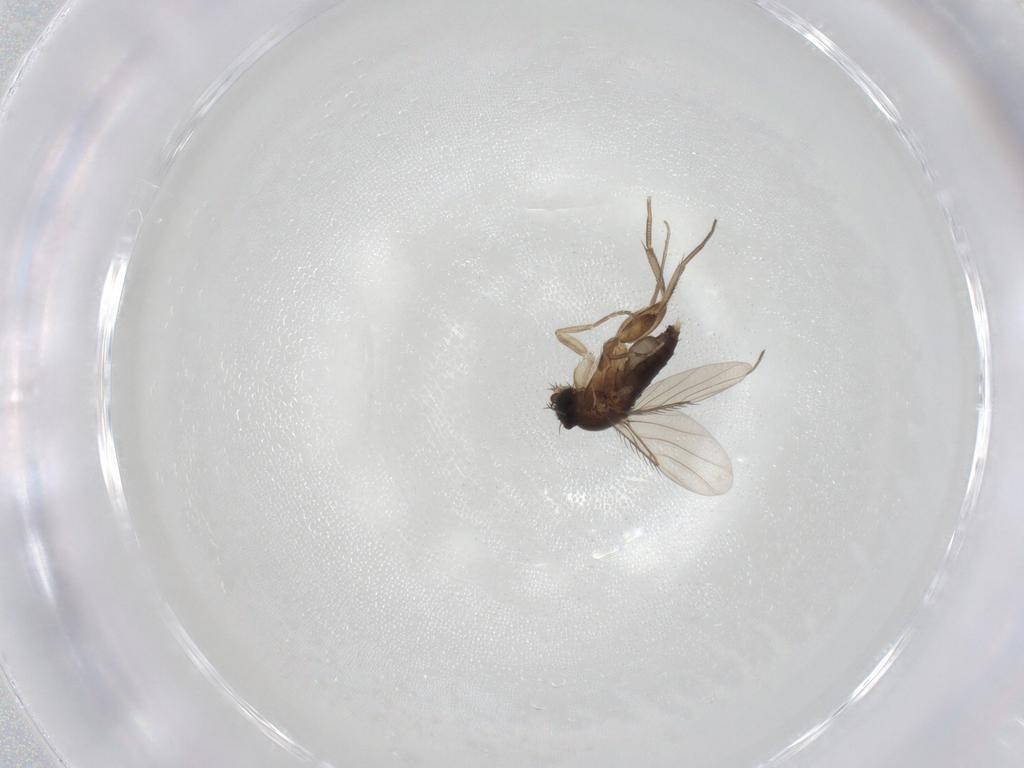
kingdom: Animalia
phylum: Arthropoda
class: Insecta
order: Diptera
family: Phoridae
